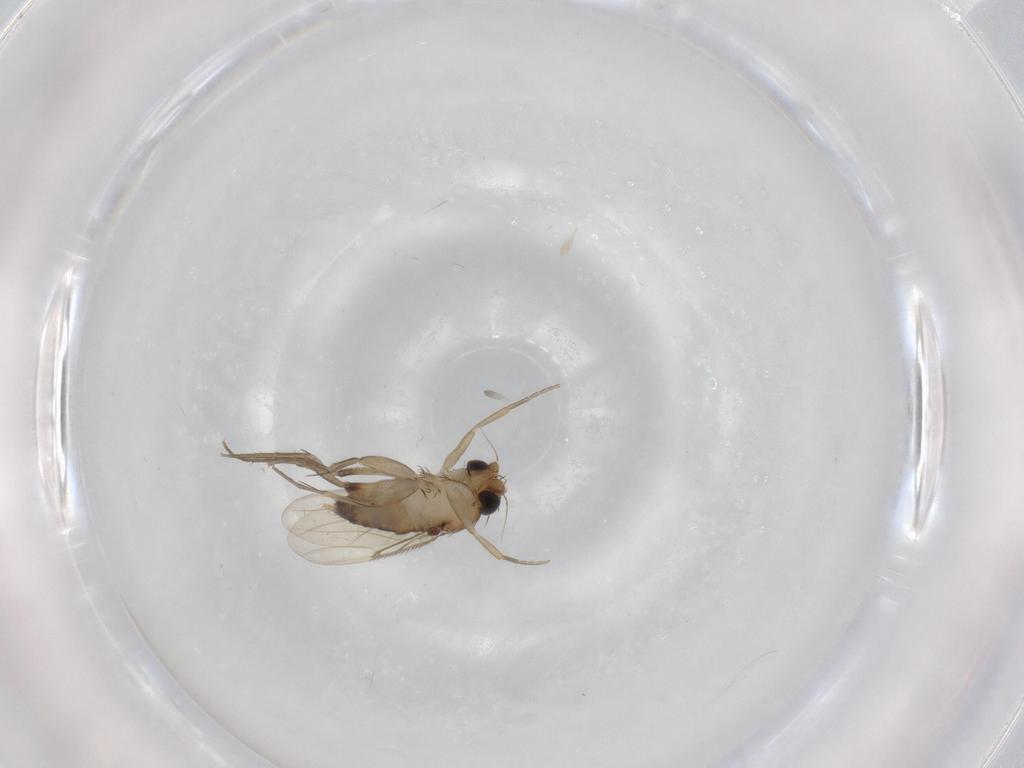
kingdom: Animalia
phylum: Arthropoda
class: Insecta
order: Diptera
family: Phoridae
